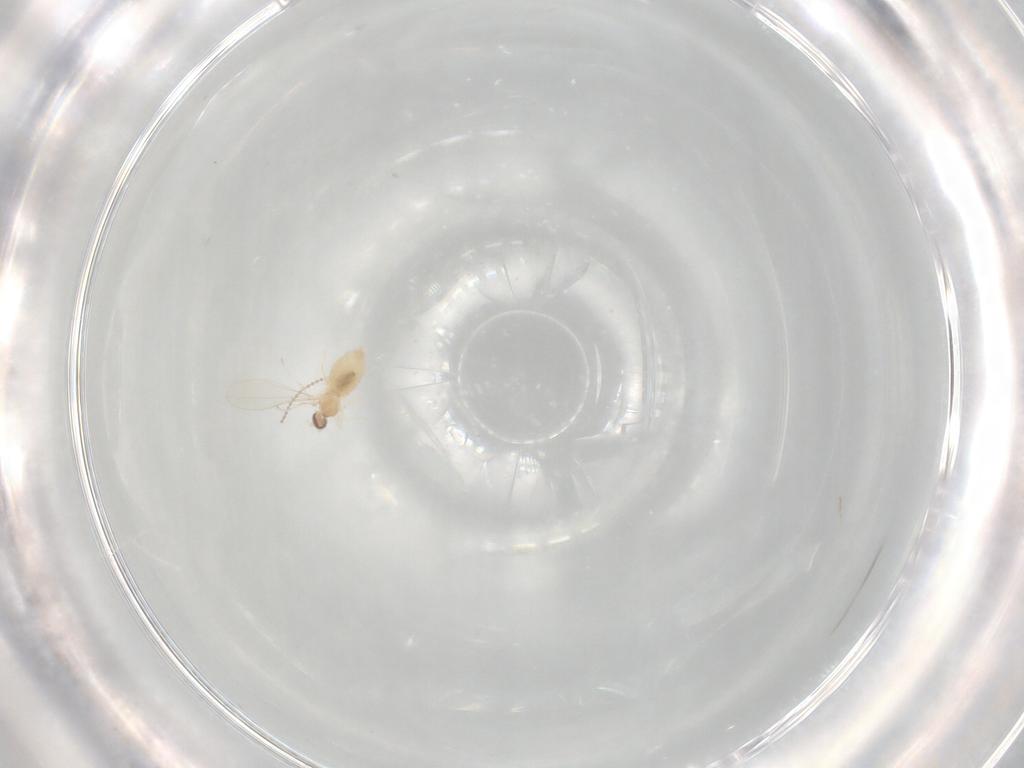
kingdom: Animalia
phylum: Arthropoda
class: Insecta
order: Diptera
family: Cecidomyiidae
